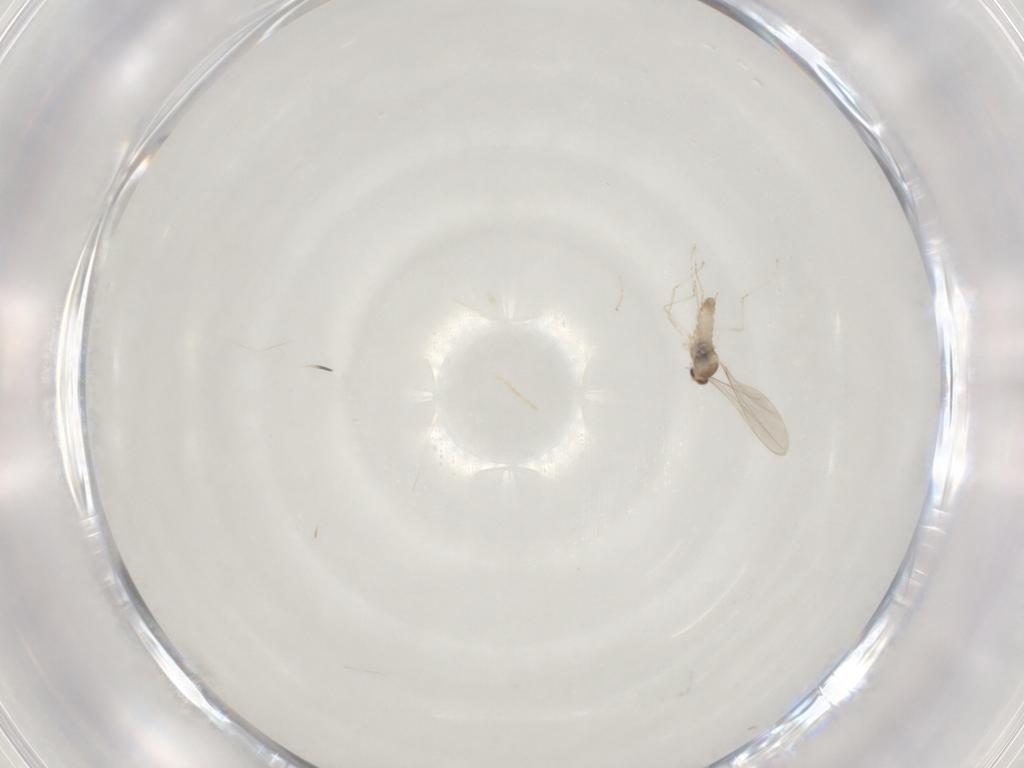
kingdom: Animalia
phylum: Arthropoda
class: Insecta
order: Diptera
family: Cecidomyiidae
